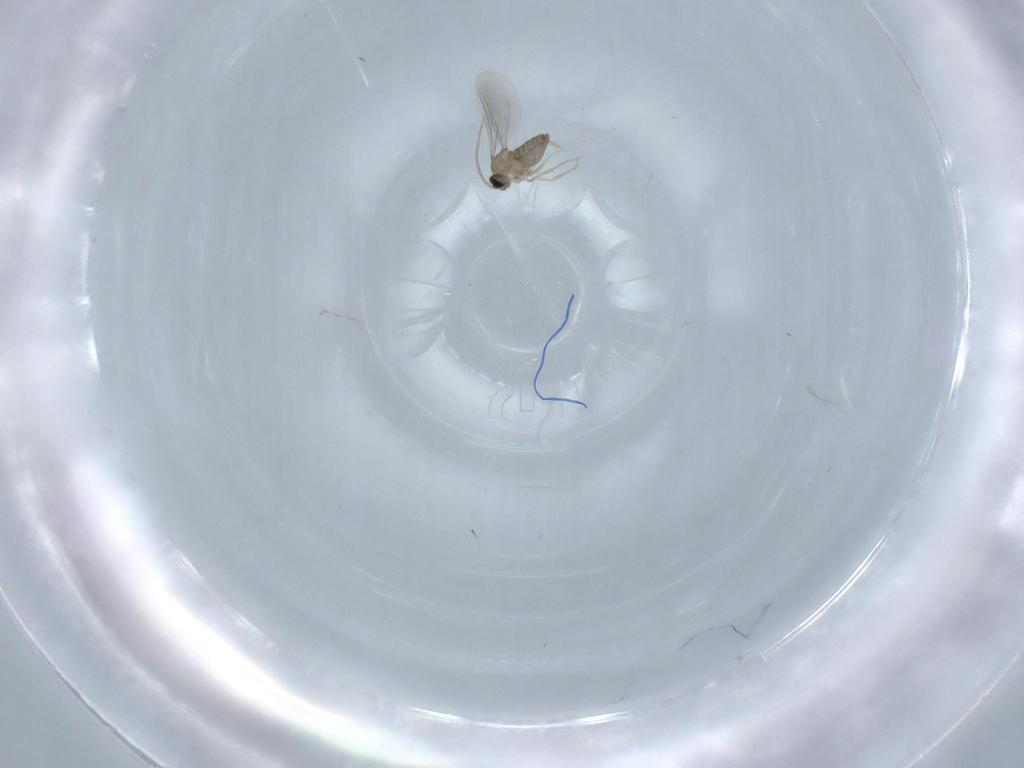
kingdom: Animalia
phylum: Arthropoda
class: Insecta
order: Diptera
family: Cecidomyiidae
